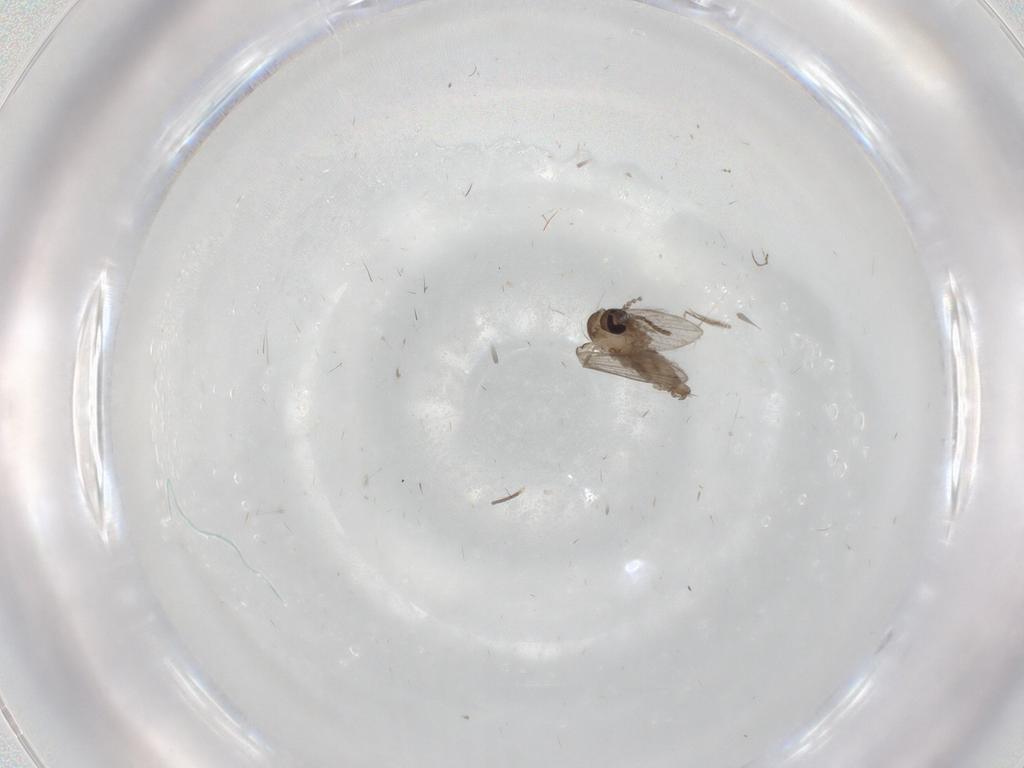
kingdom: Animalia
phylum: Arthropoda
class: Insecta
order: Diptera
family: Cecidomyiidae
